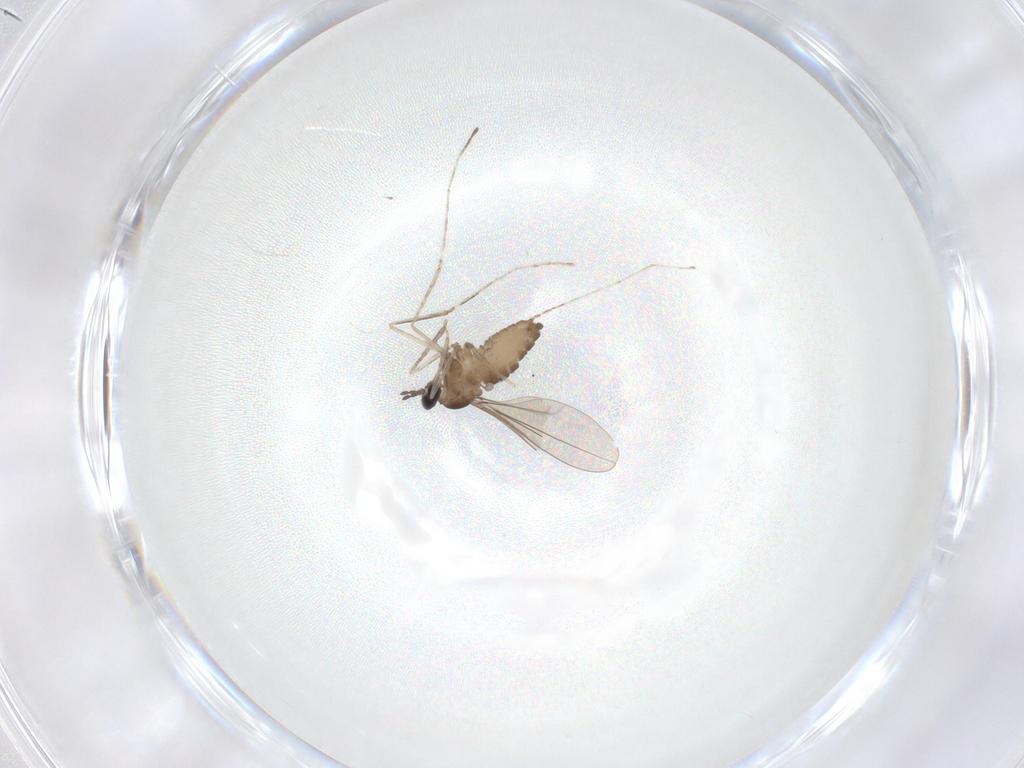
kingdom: Animalia
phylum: Arthropoda
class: Insecta
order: Diptera
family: Cecidomyiidae
